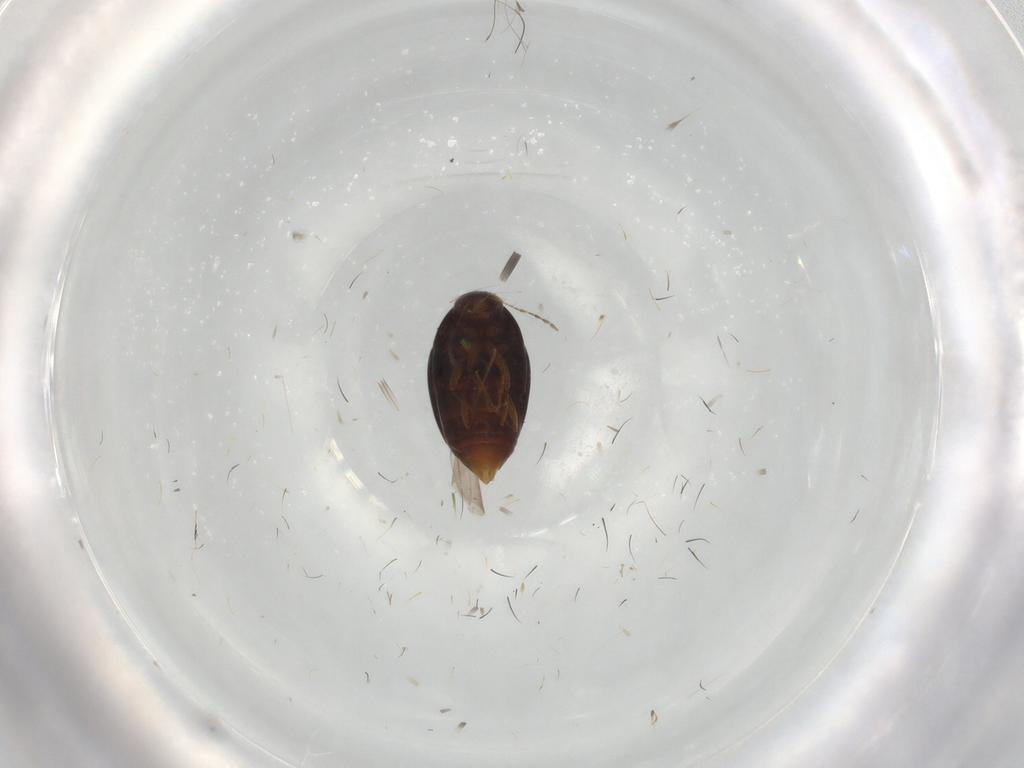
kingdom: Animalia
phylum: Arthropoda
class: Insecta
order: Coleoptera
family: Staphylinidae
